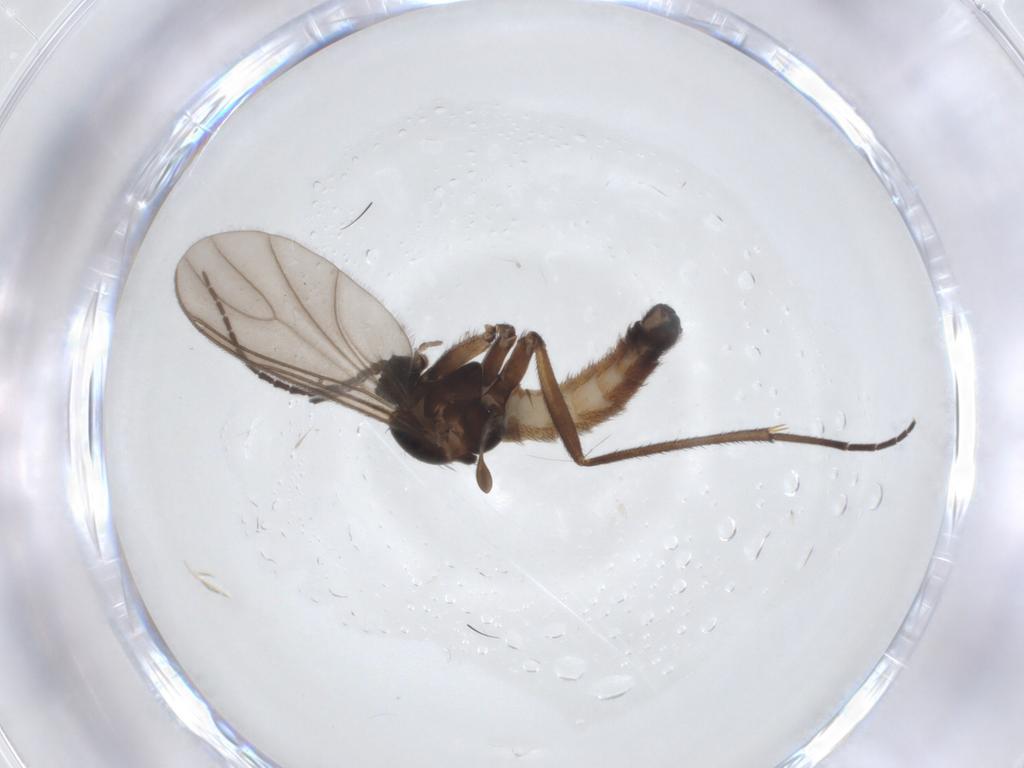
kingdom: Animalia
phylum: Arthropoda
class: Insecta
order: Diptera
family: Sciaridae
